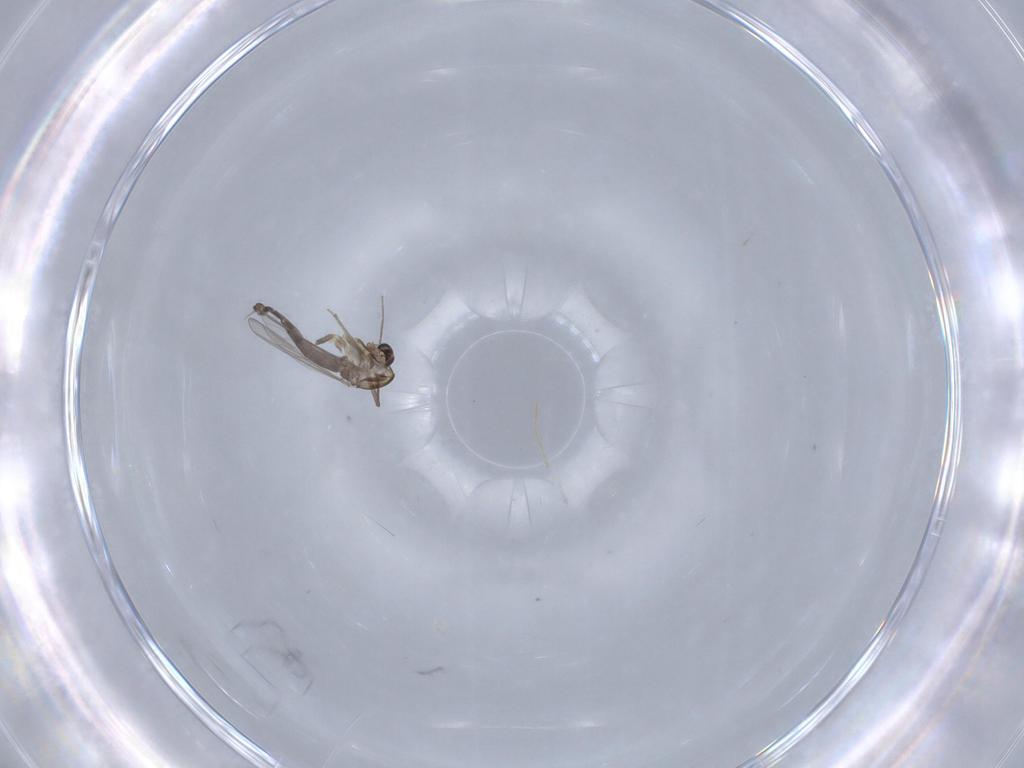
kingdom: Animalia
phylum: Arthropoda
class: Insecta
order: Diptera
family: Chironomidae
